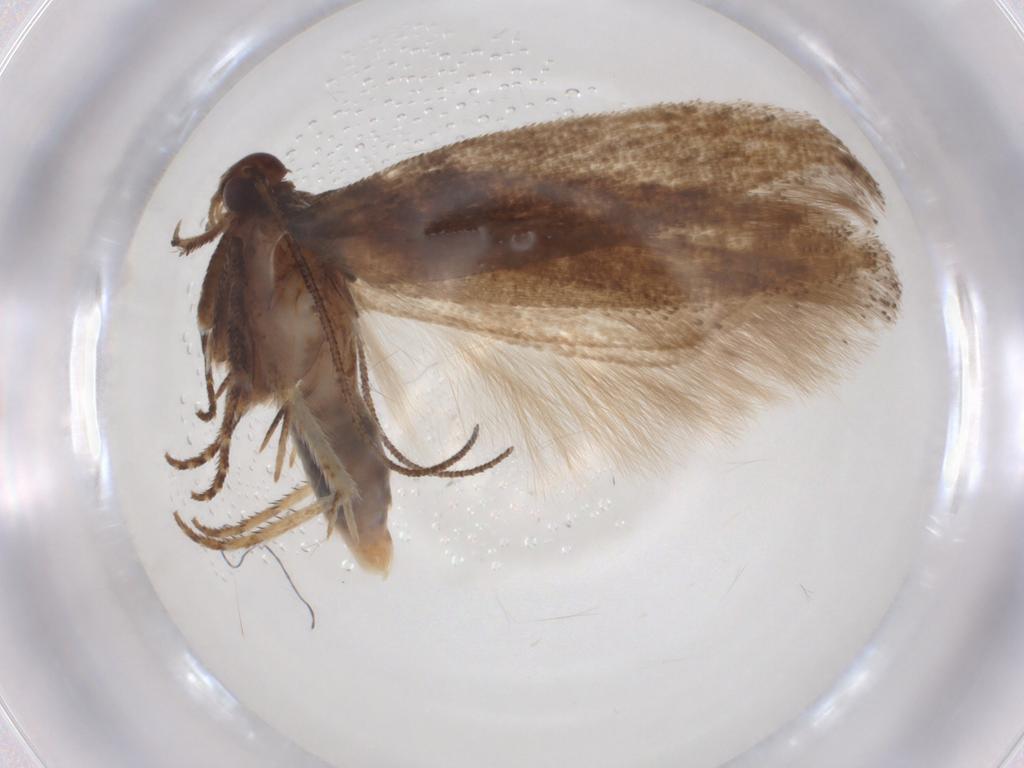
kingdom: Animalia
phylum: Arthropoda
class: Insecta
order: Lepidoptera
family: Gelechiidae
